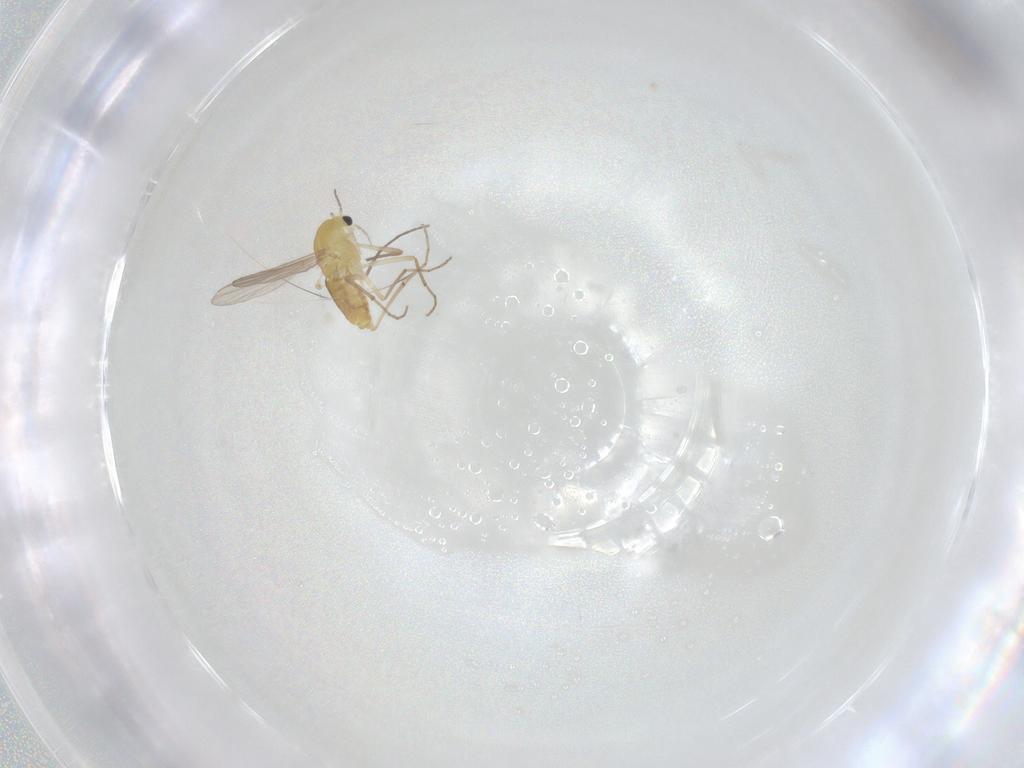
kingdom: Animalia
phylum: Arthropoda
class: Insecta
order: Diptera
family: Chironomidae
